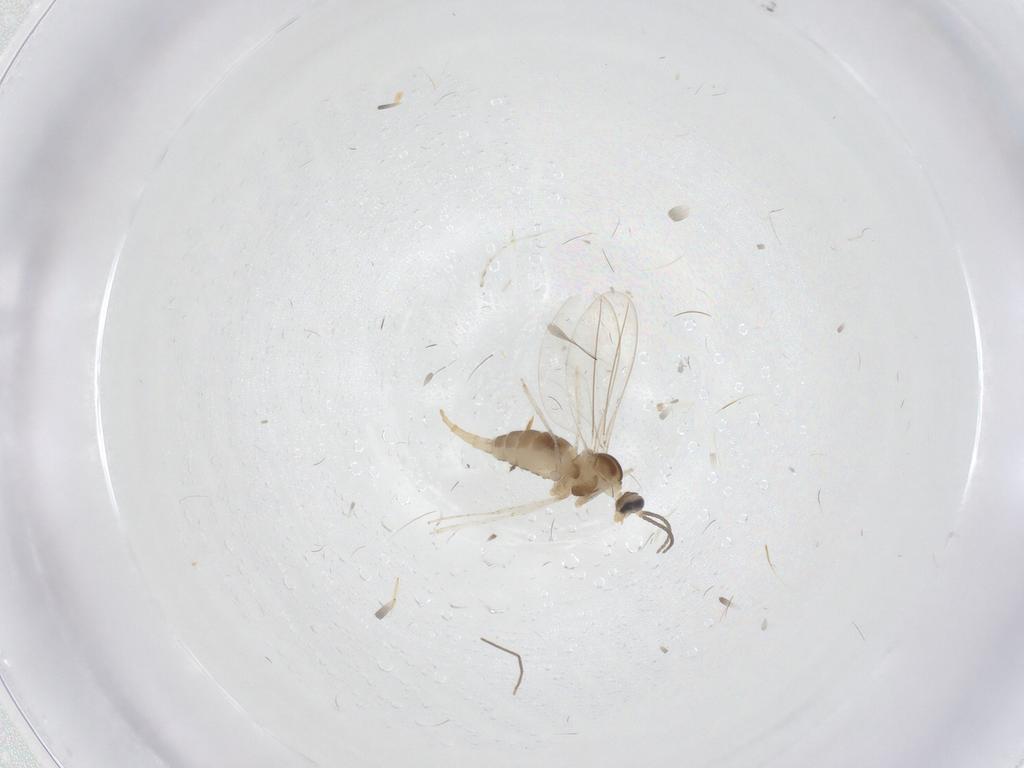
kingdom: Animalia
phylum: Arthropoda
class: Insecta
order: Diptera
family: Cecidomyiidae
